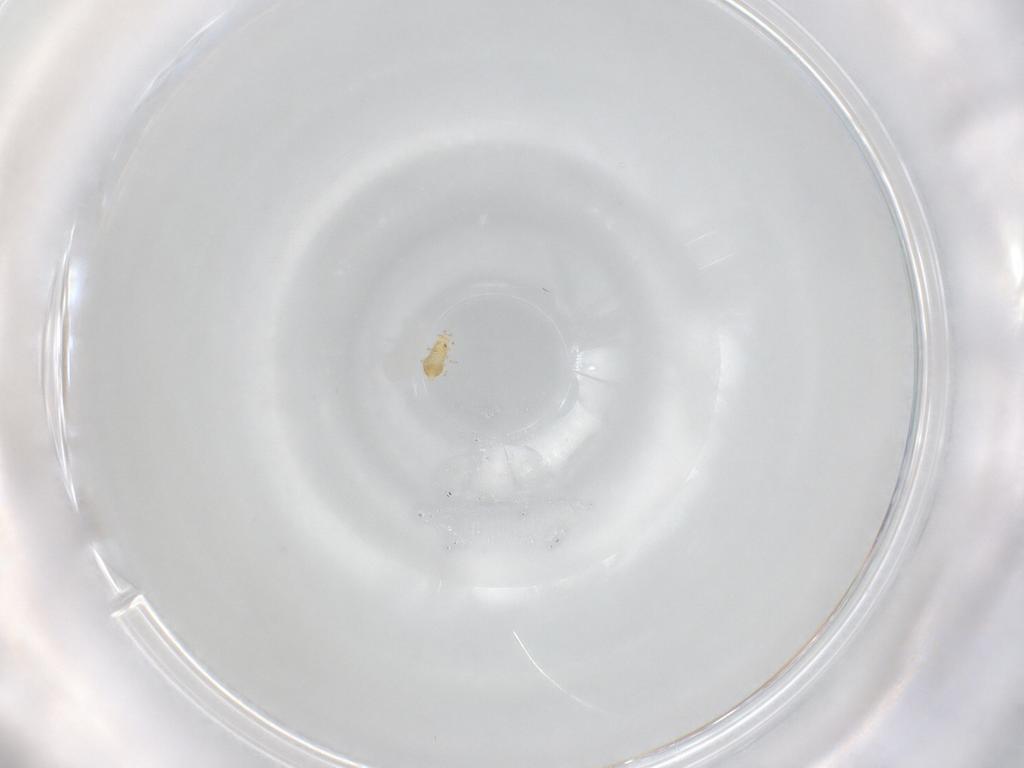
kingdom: Animalia
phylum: Arthropoda
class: Insecta
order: Thysanoptera
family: Thripidae
